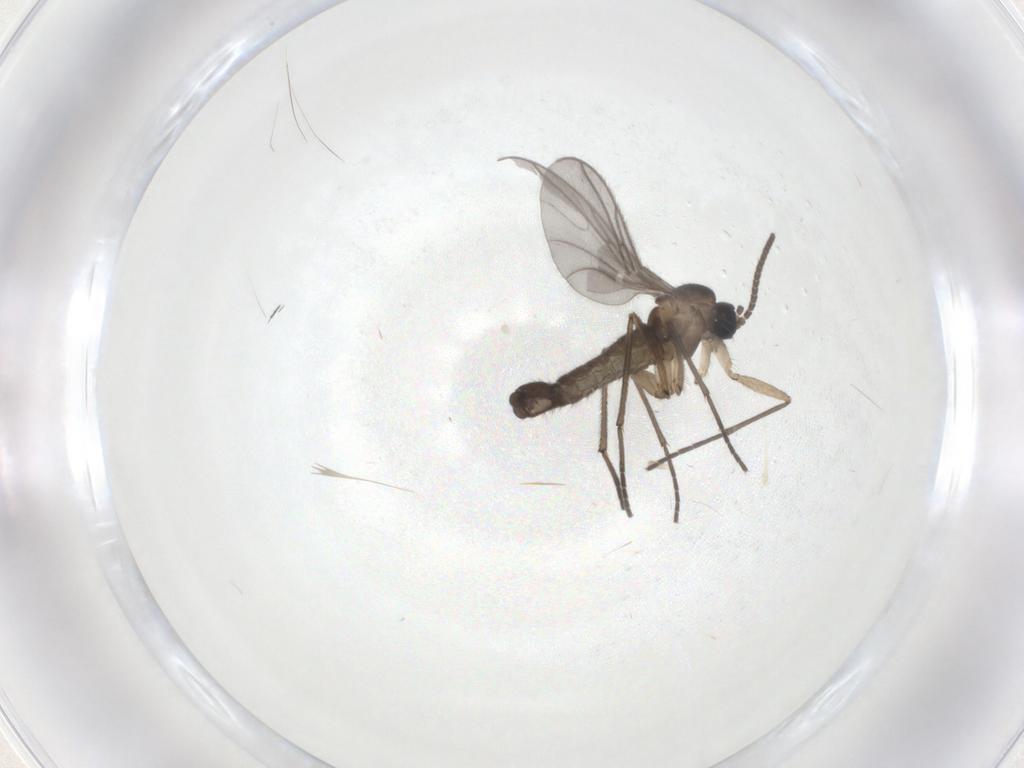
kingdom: Animalia
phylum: Arthropoda
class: Insecta
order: Diptera
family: Sciaridae
